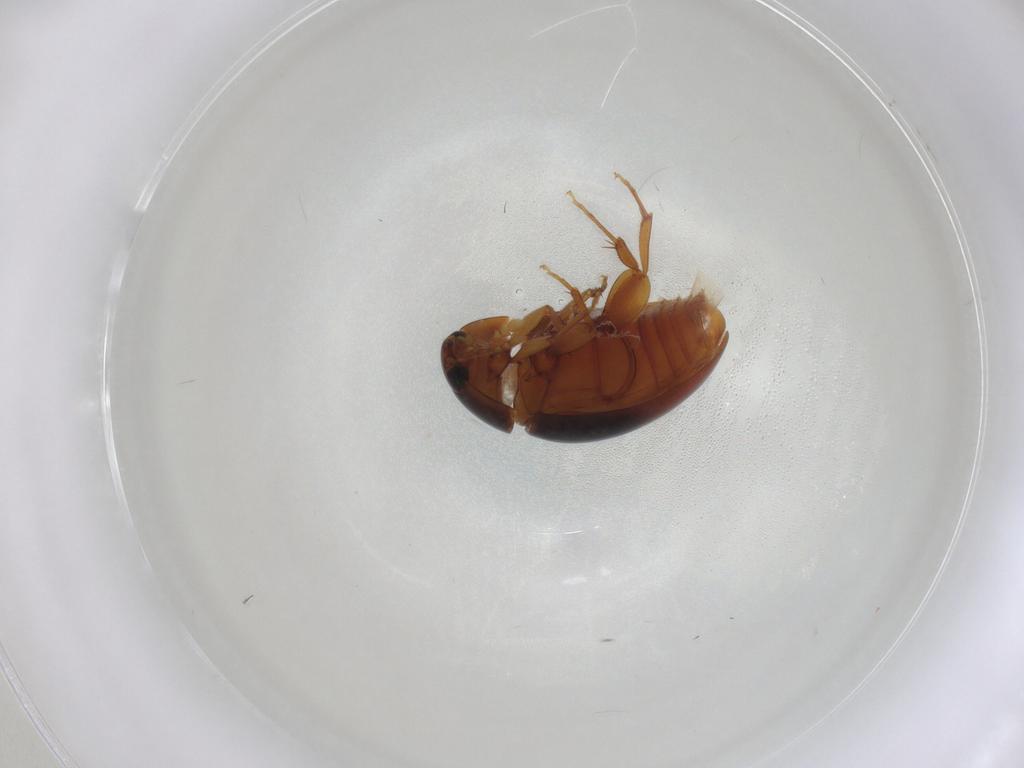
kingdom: Animalia
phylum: Arthropoda
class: Insecta
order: Coleoptera
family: Phalacridae
